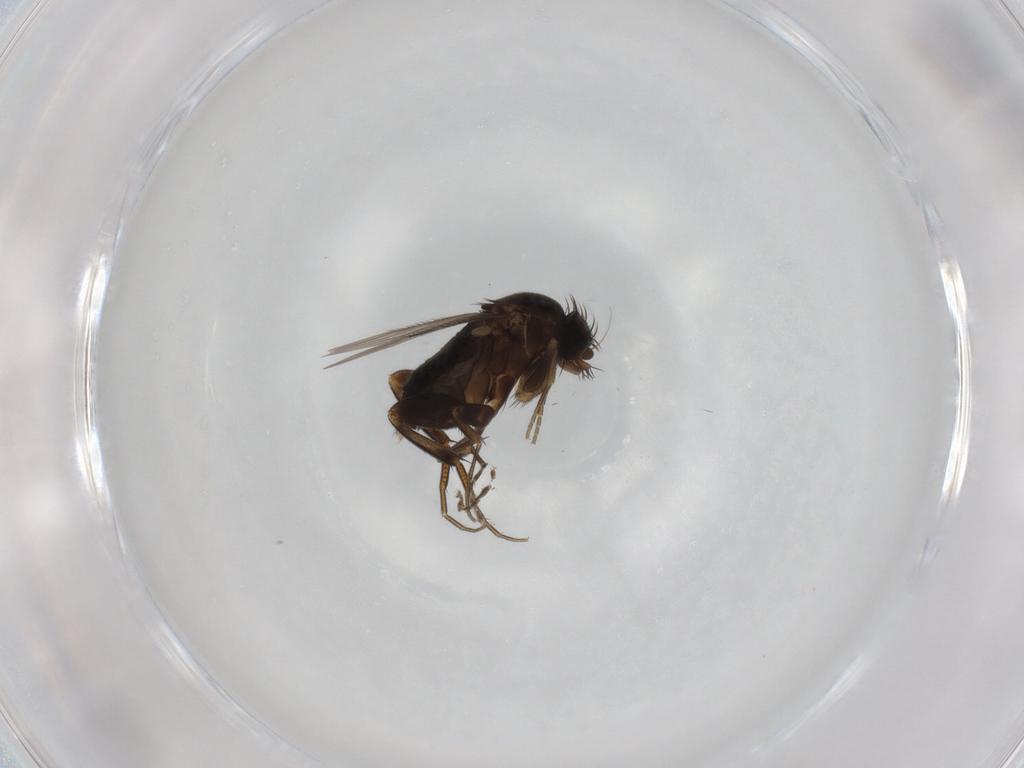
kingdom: Animalia
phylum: Arthropoda
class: Insecta
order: Diptera
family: Phoridae
